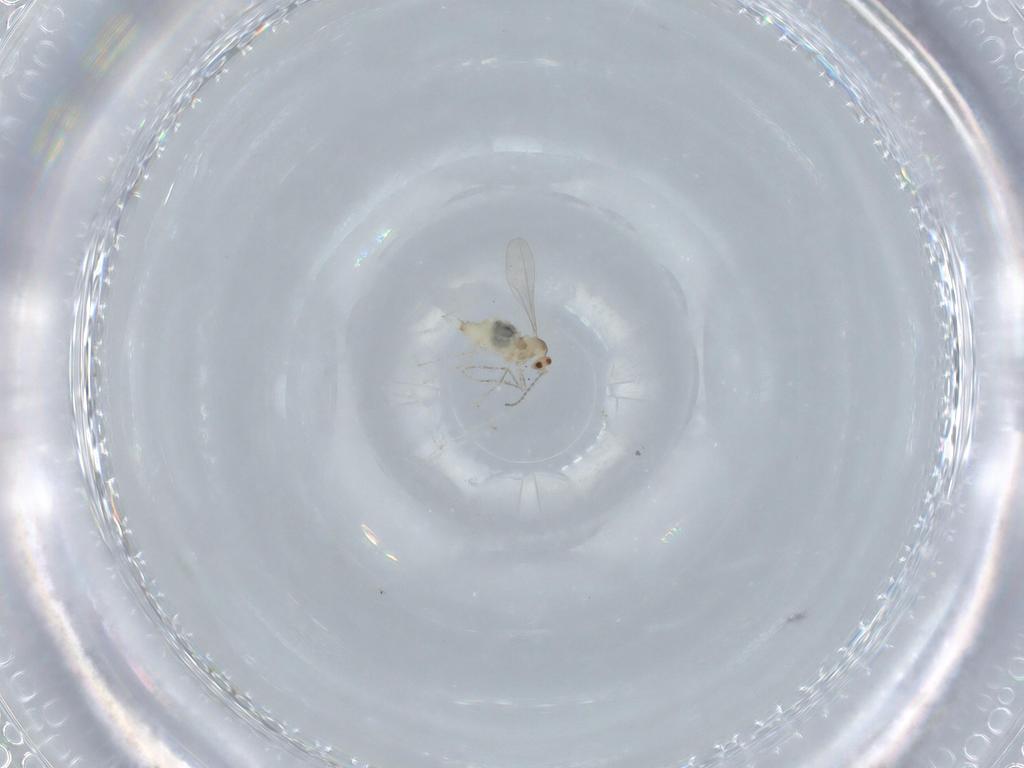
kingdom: Animalia
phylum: Arthropoda
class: Insecta
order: Diptera
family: Cecidomyiidae
